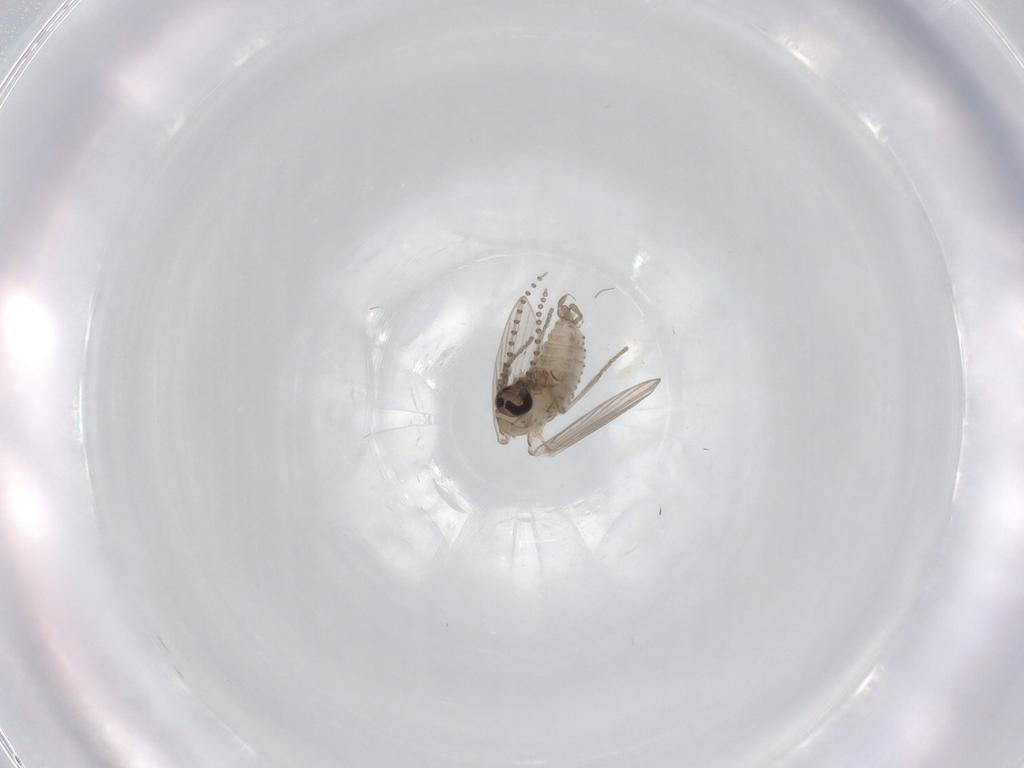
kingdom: Animalia
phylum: Arthropoda
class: Insecta
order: Diptera
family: Psychodidae
